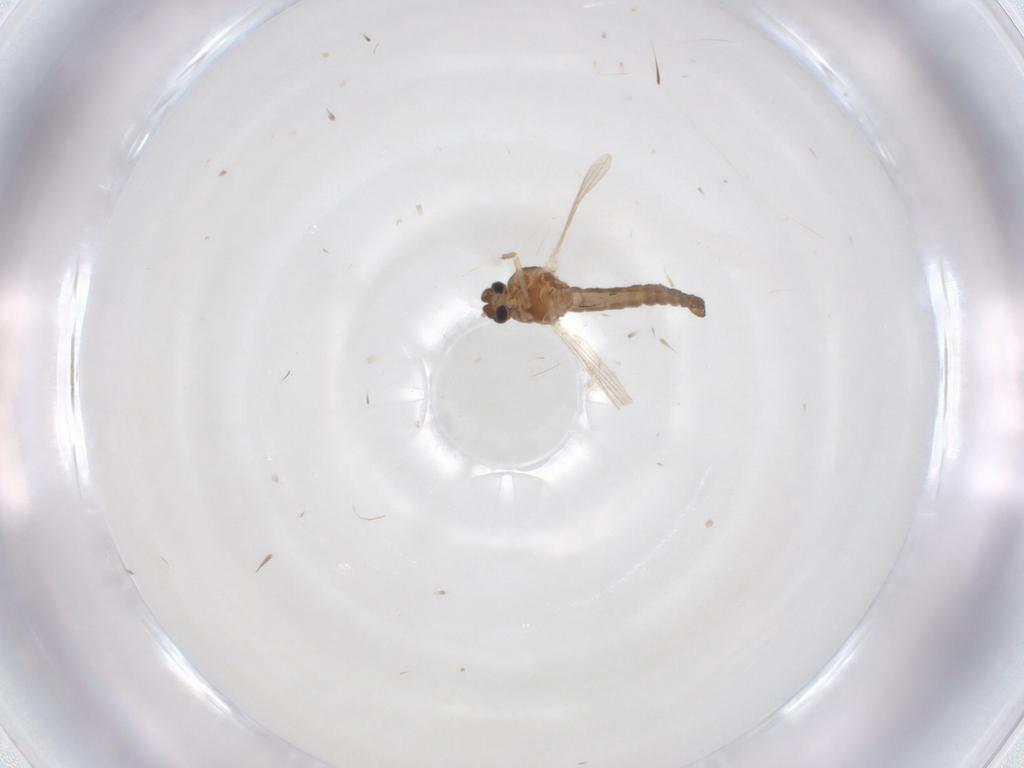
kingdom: Animalia
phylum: Arthropoda
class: Insecta
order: Diptera
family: Ceratopogonidae
